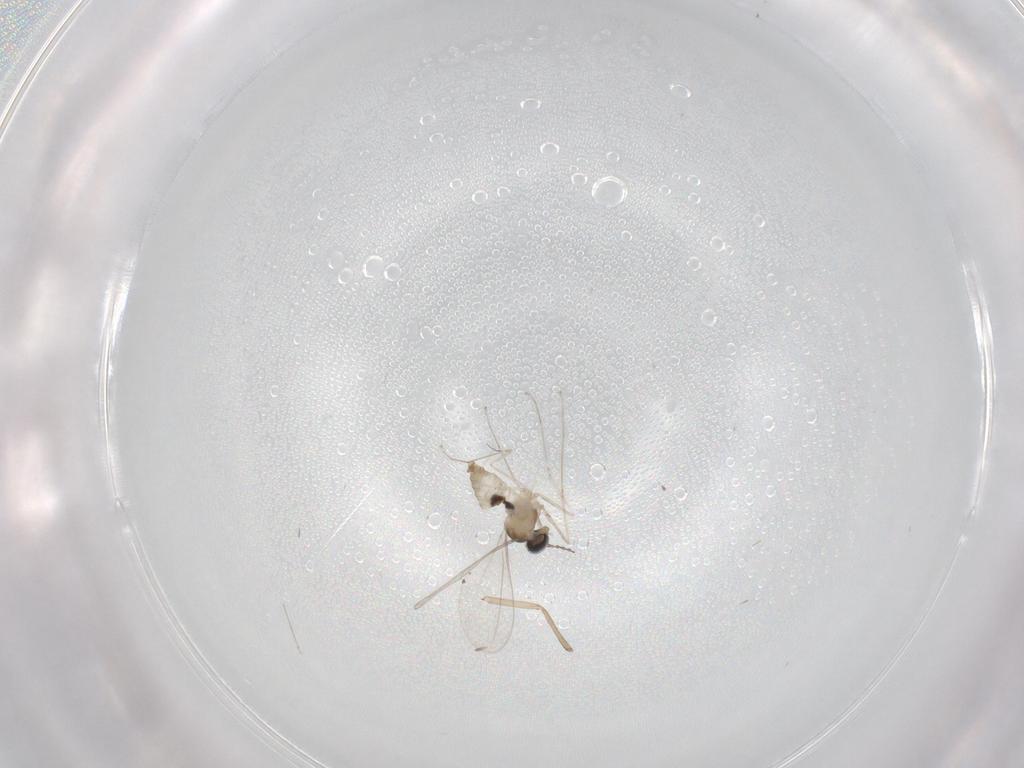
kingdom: Animalia
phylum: Arthropoda
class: Insecta
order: Diptera
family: Cecidomyiidae
